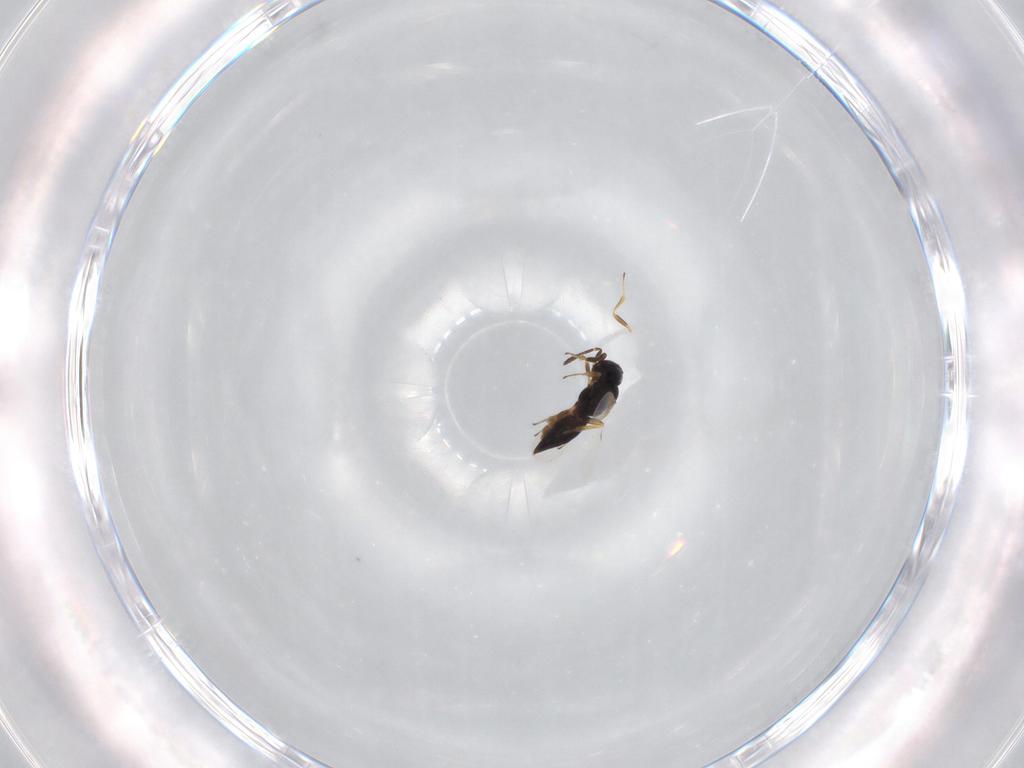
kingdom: Animalia
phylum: Arthropoda
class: Insecta
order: Hymenoptera
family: Scelionidae
